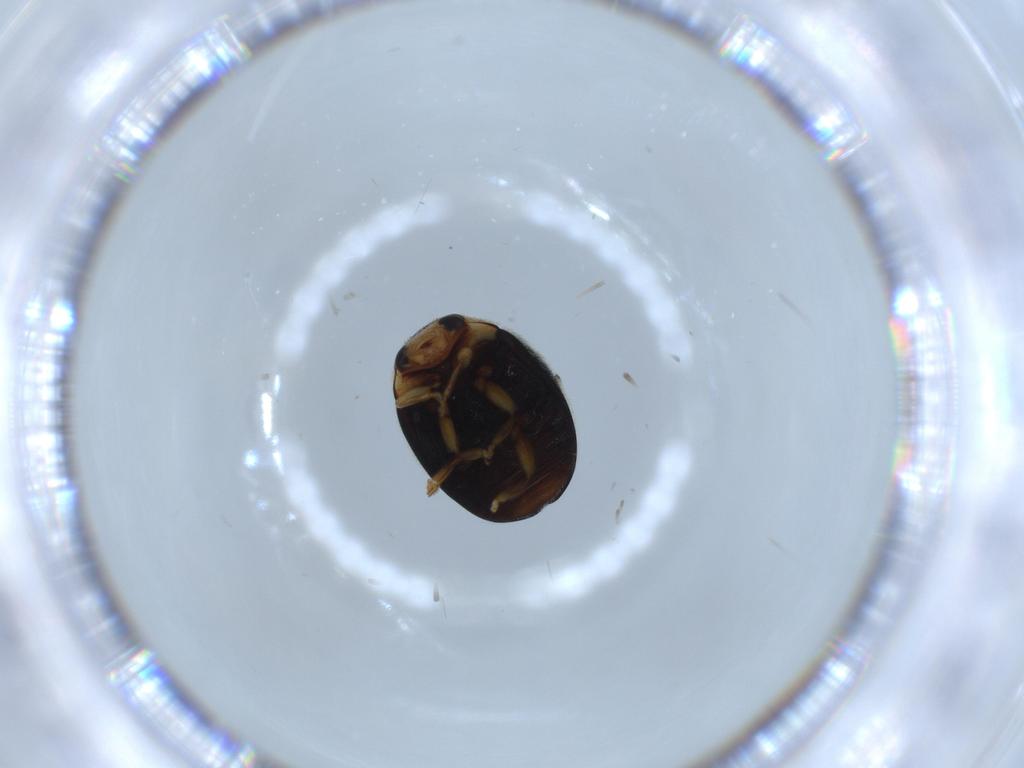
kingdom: Animalia
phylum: Arthropoda
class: Insecta
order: Coleoptera
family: Coccinellidae
